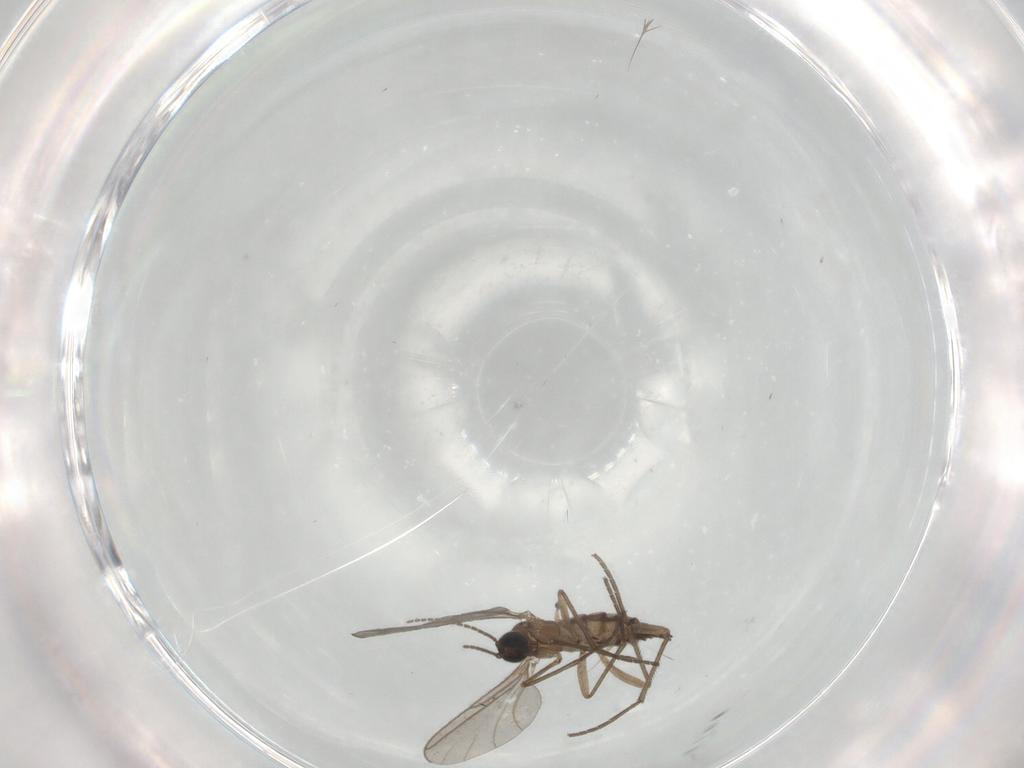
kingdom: Animalia
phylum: Arthropoda
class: Insecta
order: Diptera
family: Sciaridae
